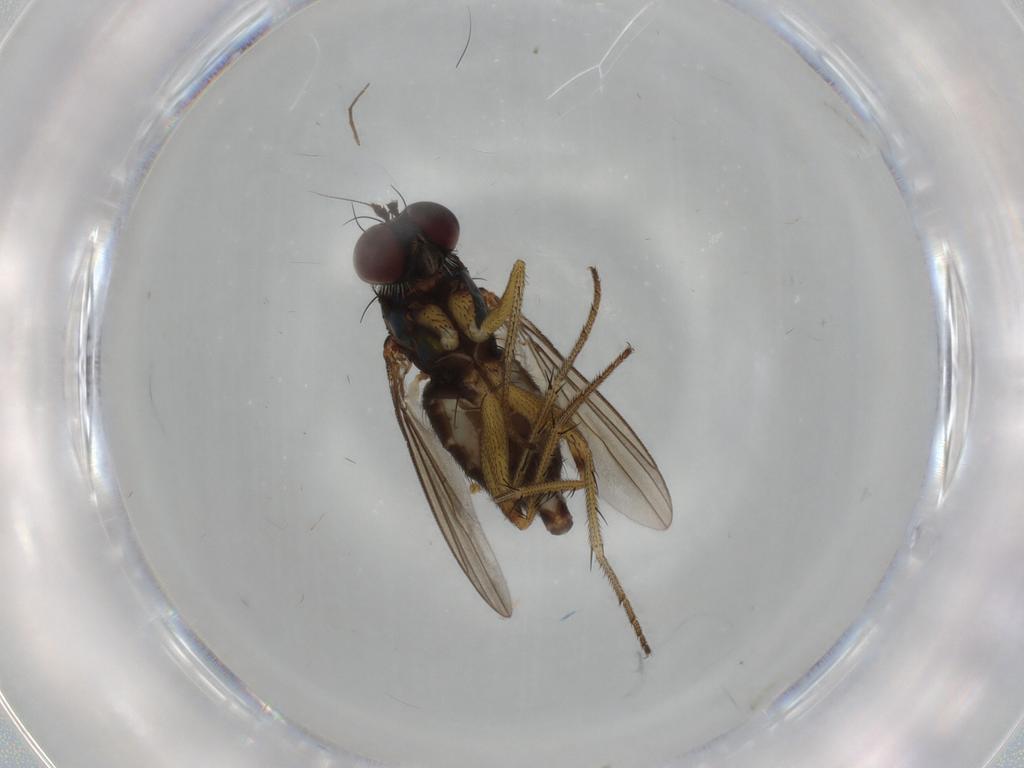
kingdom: Animalia
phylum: Arthropoda
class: Insecta
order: Diptera
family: Dolichopodidae
